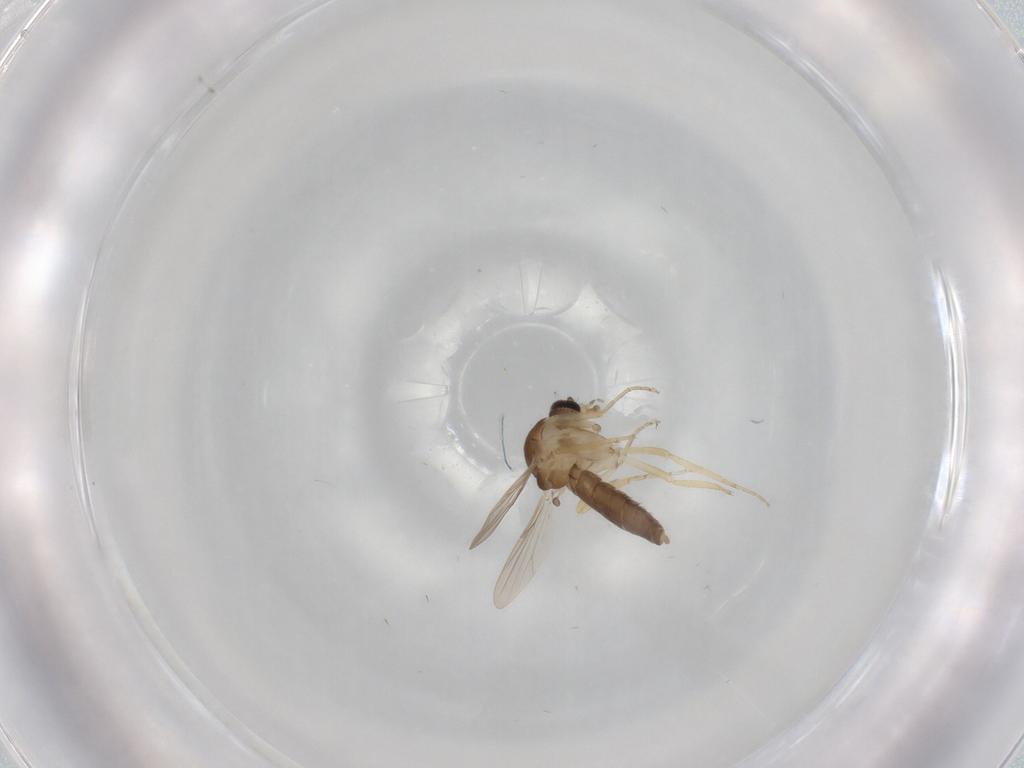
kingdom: Animalia
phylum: Arthropoda
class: Insecta
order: Diptera
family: Ceratopogonidae
